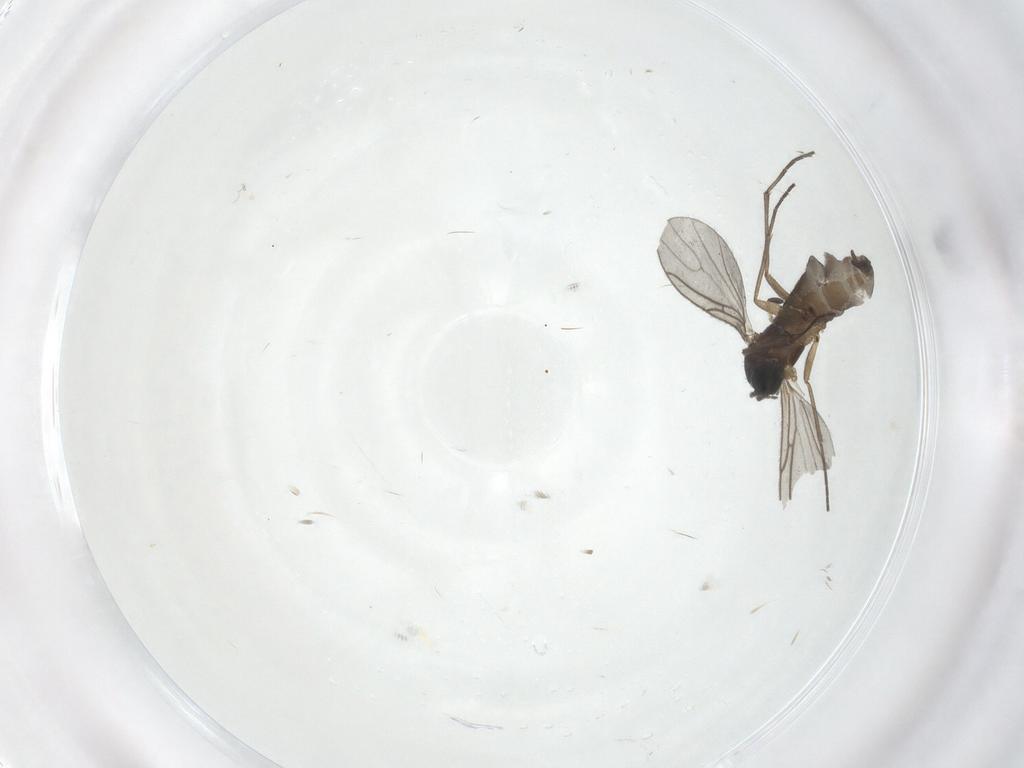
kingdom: Animalia
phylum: Arthropoda
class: Insecta
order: Diptera
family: Sciaridae
